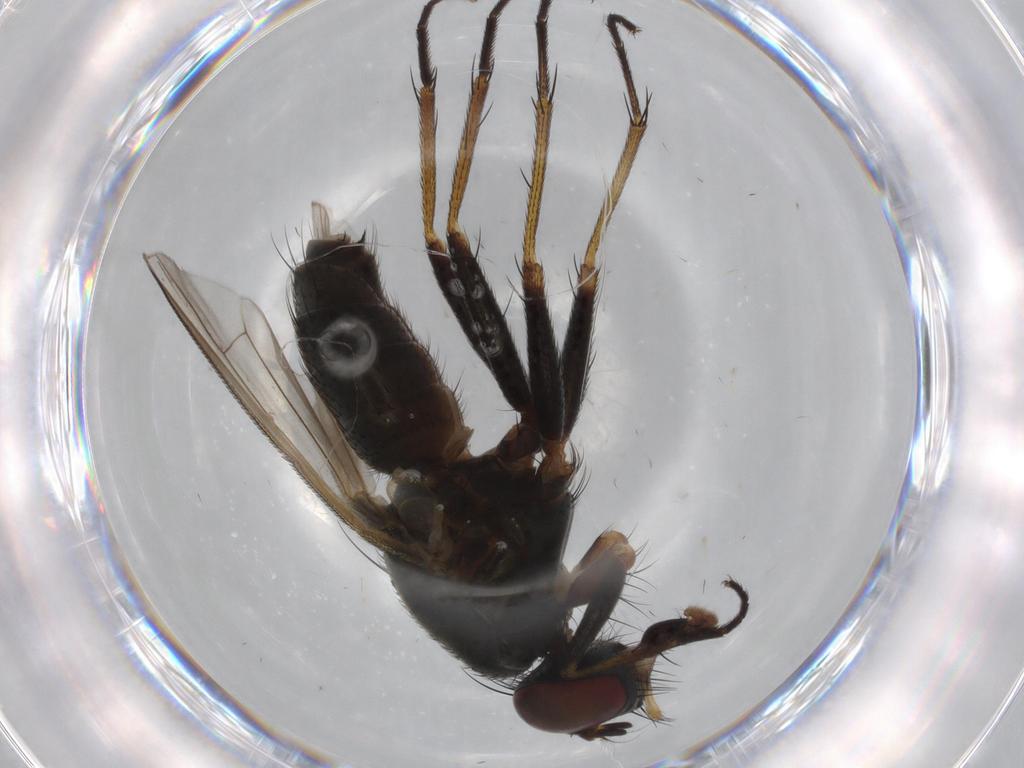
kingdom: Animalia
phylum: Arthropoda
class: Insecta
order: Diptera
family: Muscidae
